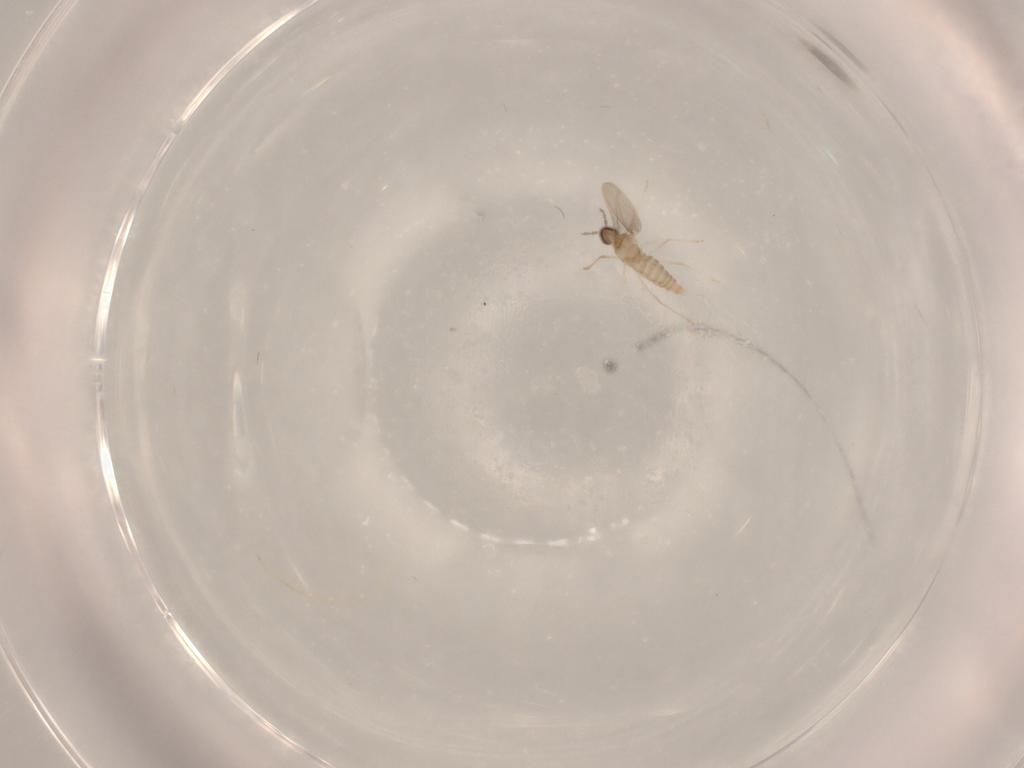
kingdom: Animalia
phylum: Arthropoda
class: Insecta
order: Diptera
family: Cecidomyiidae
